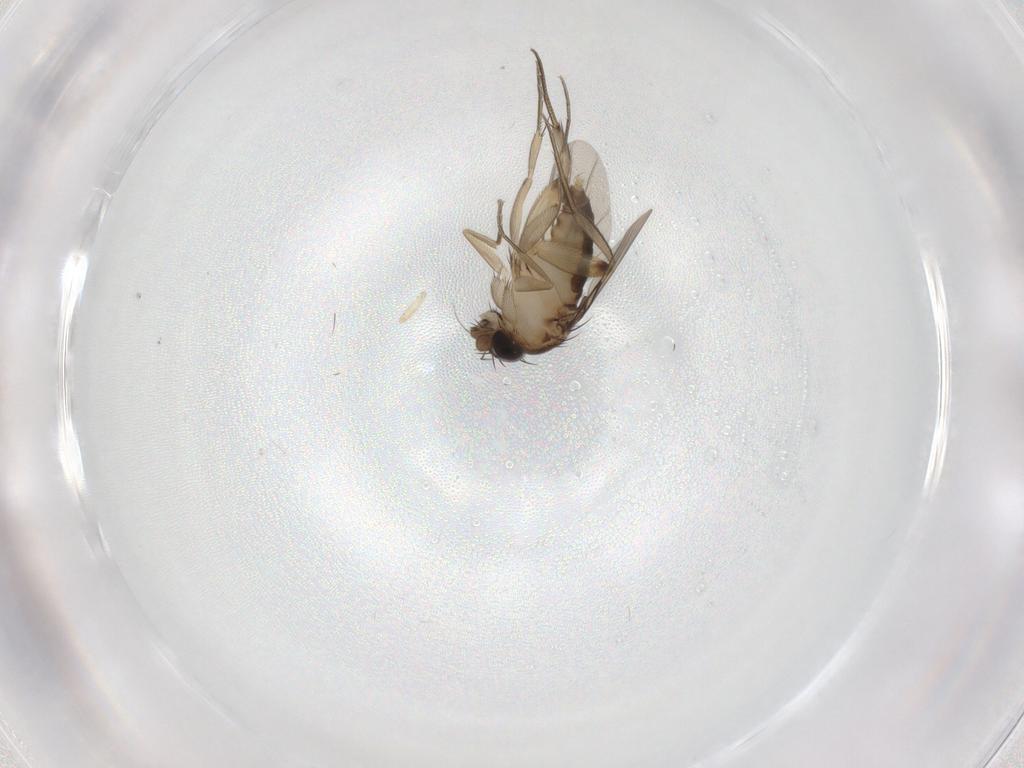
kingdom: Animalia
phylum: Arthropoda
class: Insecta
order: Diptera
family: Phoridae
